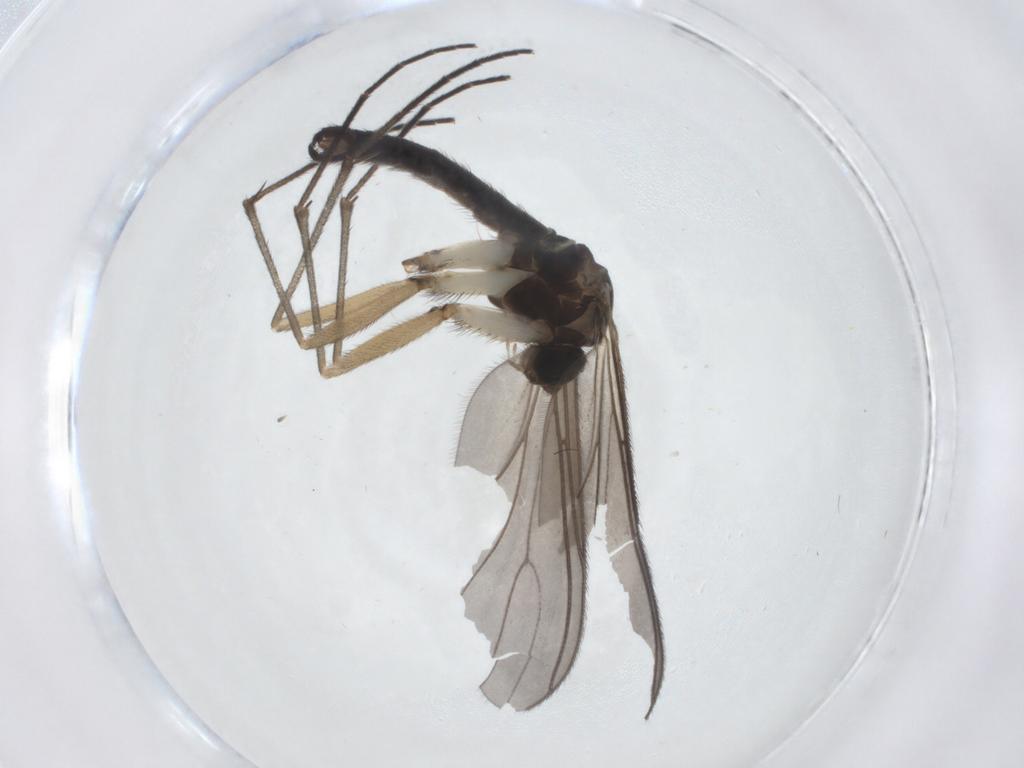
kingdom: Animalia
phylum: Arthropoda
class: Insecta
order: Diptera
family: Sciaridae
